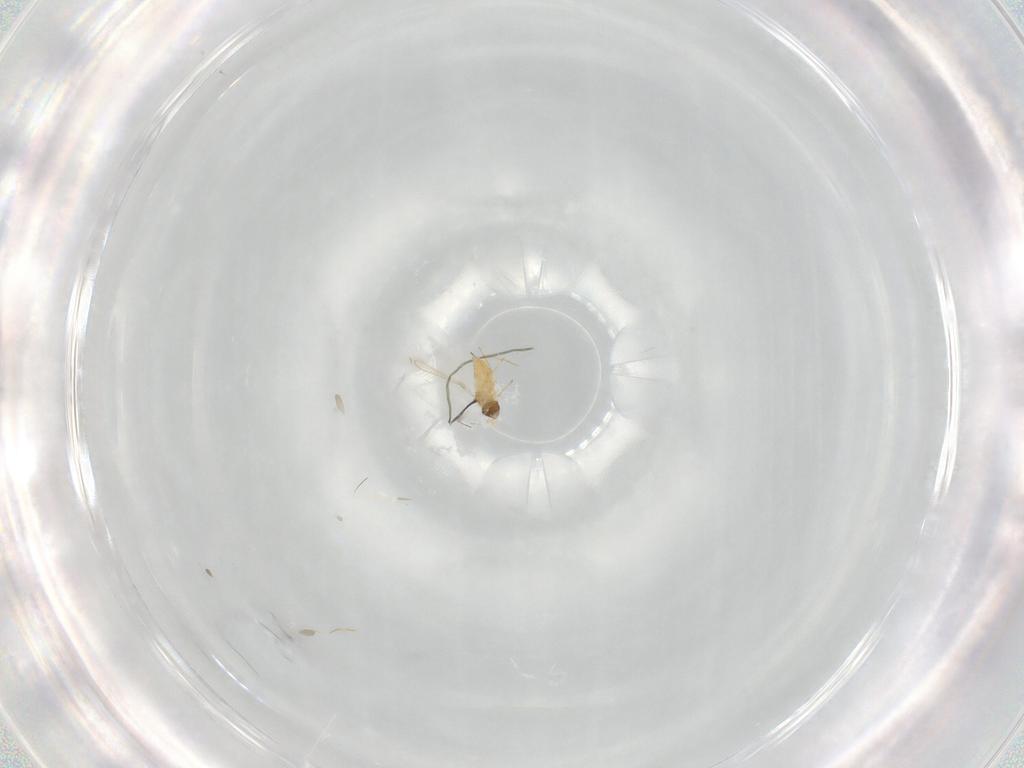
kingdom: Animalia
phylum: Arthropoda
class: Insecta
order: Hymenoptera
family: Mymaridae
